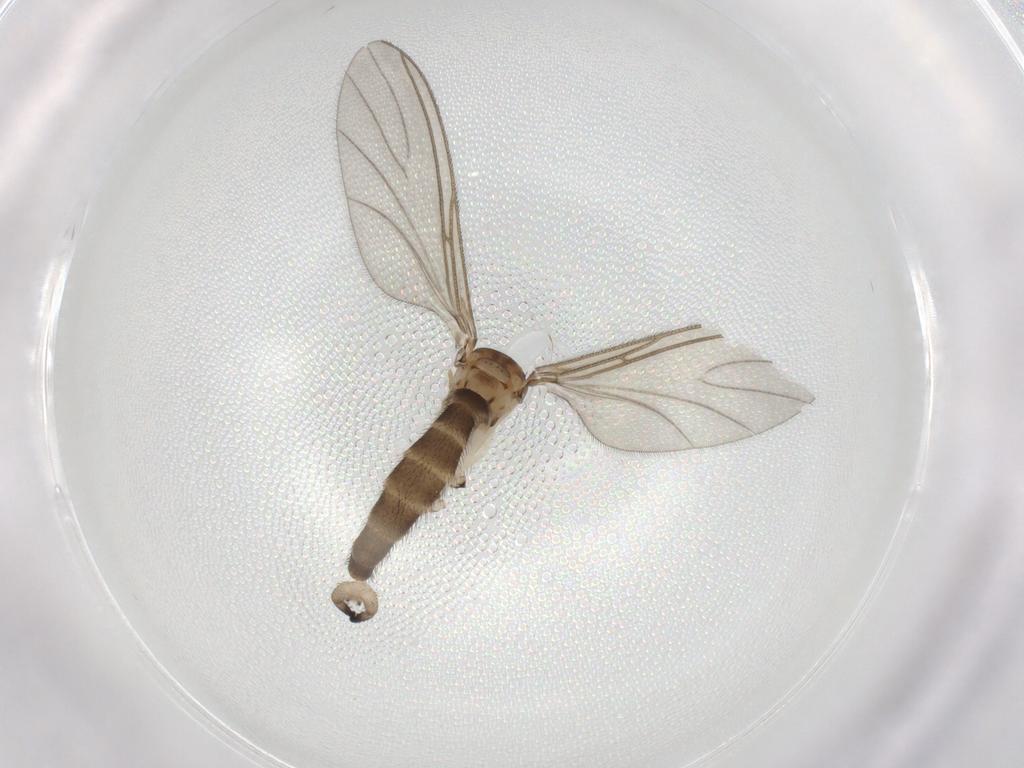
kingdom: Animalia
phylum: Arthropoda
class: Insecta
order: Diptera
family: Sciaridae
